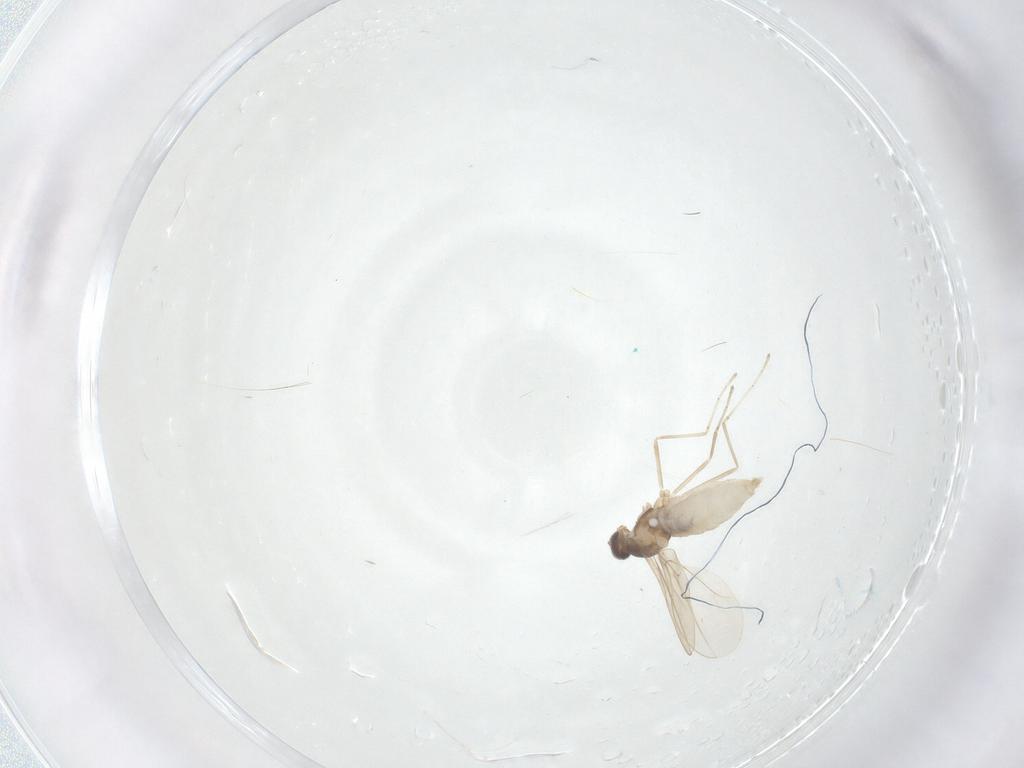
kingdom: Animalia
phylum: Arthropoda
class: Insecta
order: Diptera
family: Cecidomyiidae
